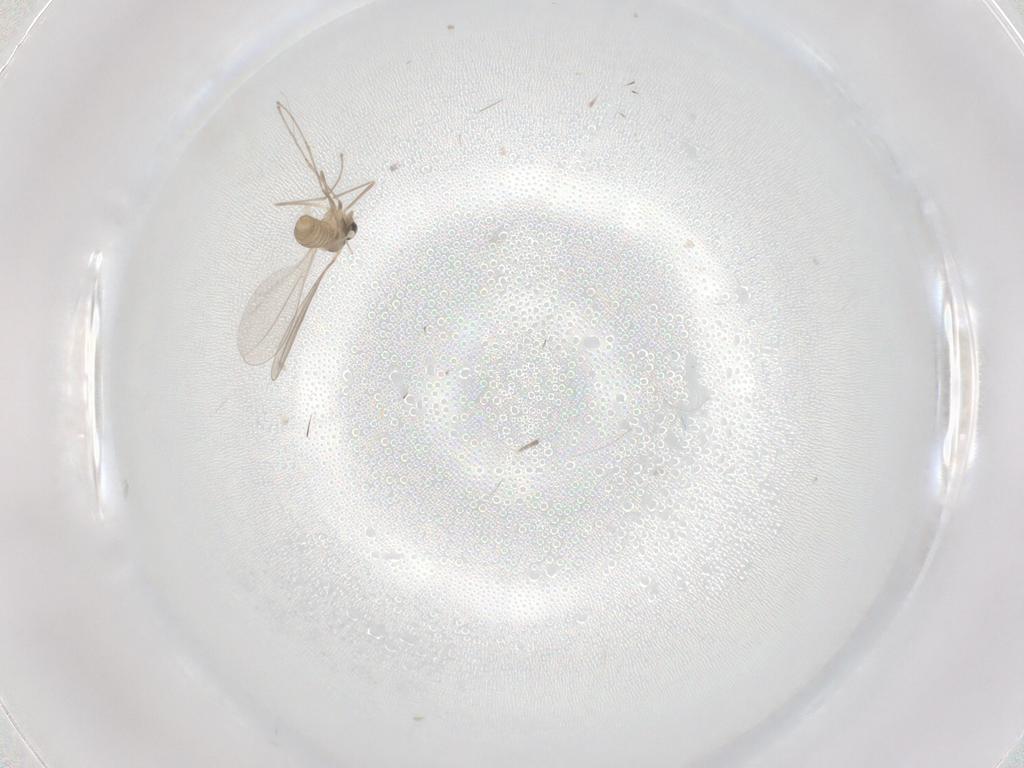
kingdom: Animalia
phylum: Arthropoda
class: Insecta
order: Diptera
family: Cecidomyiidae
